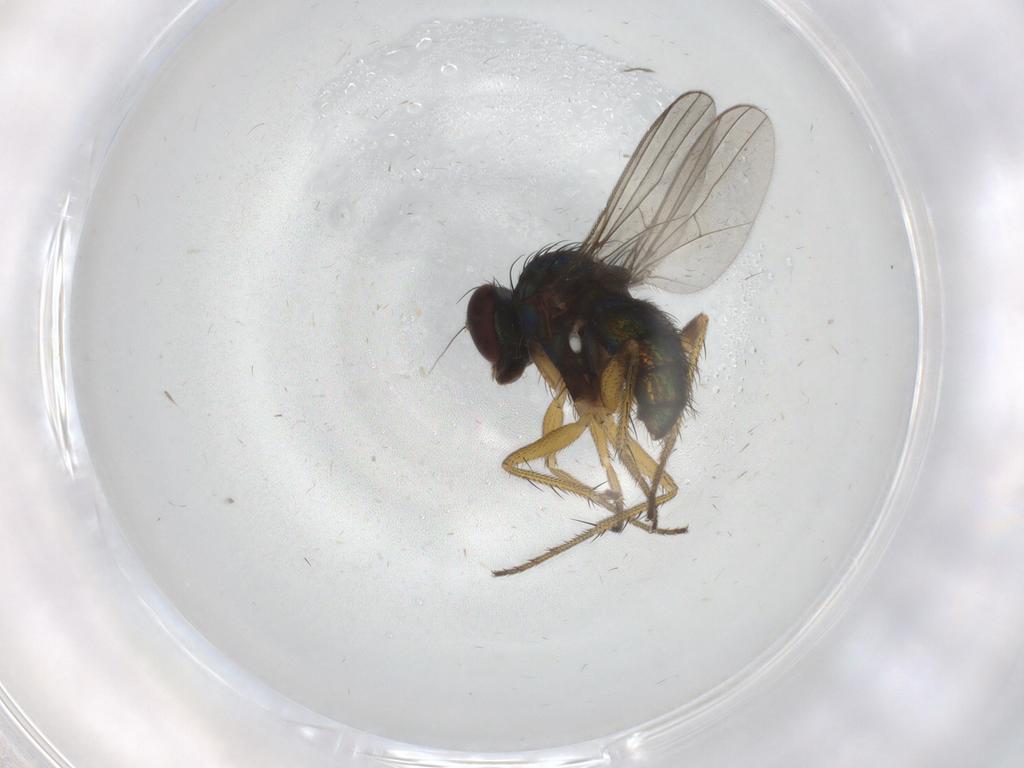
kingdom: Animalia
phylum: Arthropoda
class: Insecta
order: Diptera
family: Dolichopodidae
